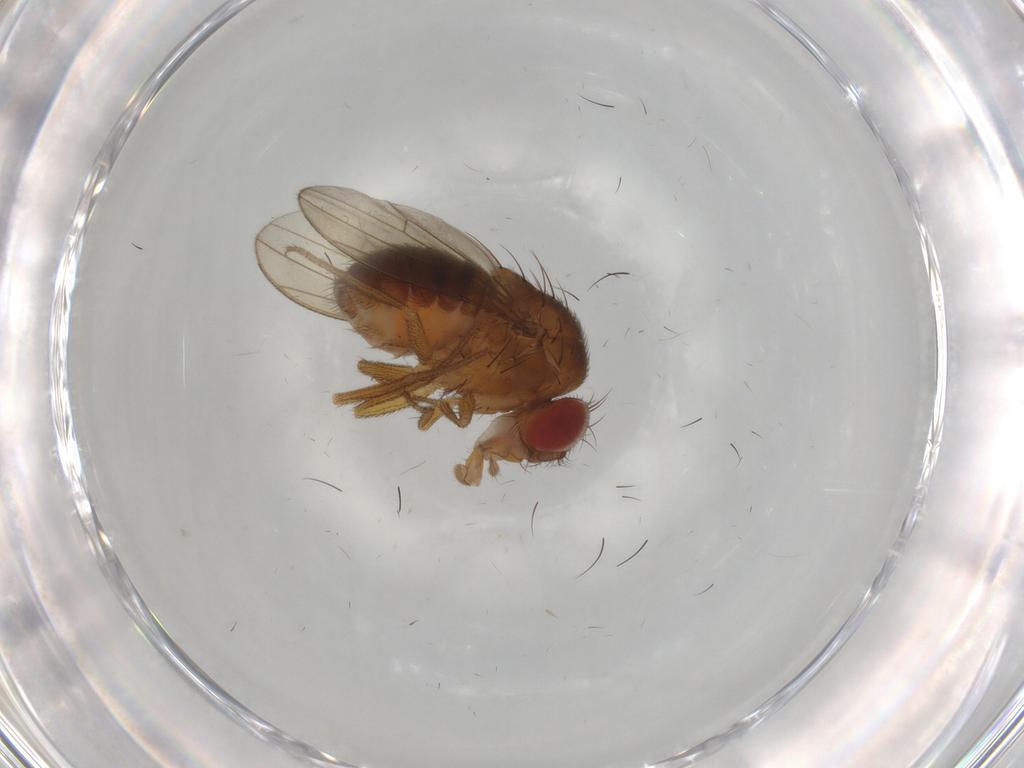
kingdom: Animalia
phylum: Arthropoda
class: Insecta
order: Diptera
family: Drosophilidae
